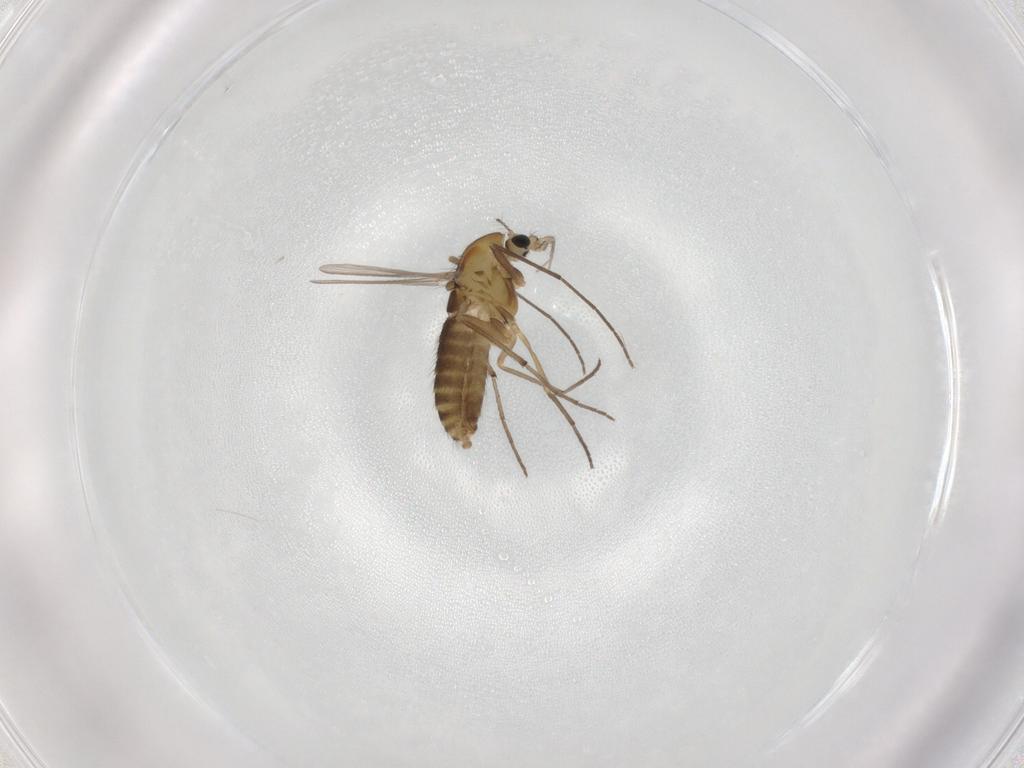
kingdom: Animalia
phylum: Arthropoda
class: Insecta
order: Diptera
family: Chironomidae
